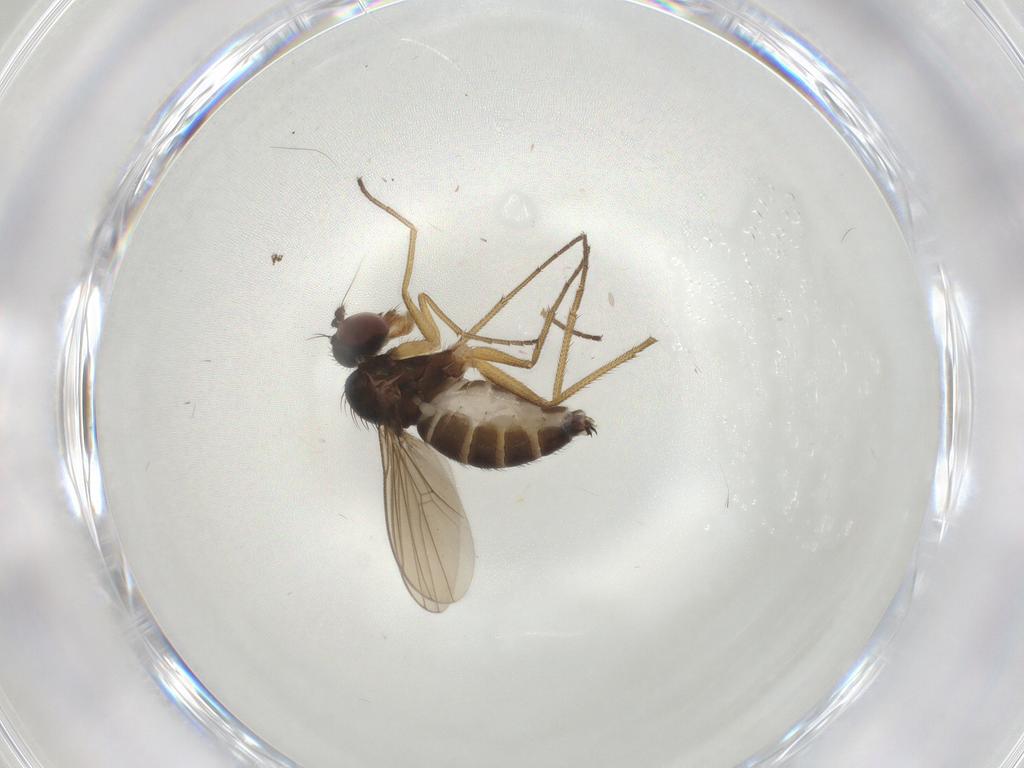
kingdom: Animalia
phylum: Arthropoda
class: Insecta
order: Diptera
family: Dolichopodidae
